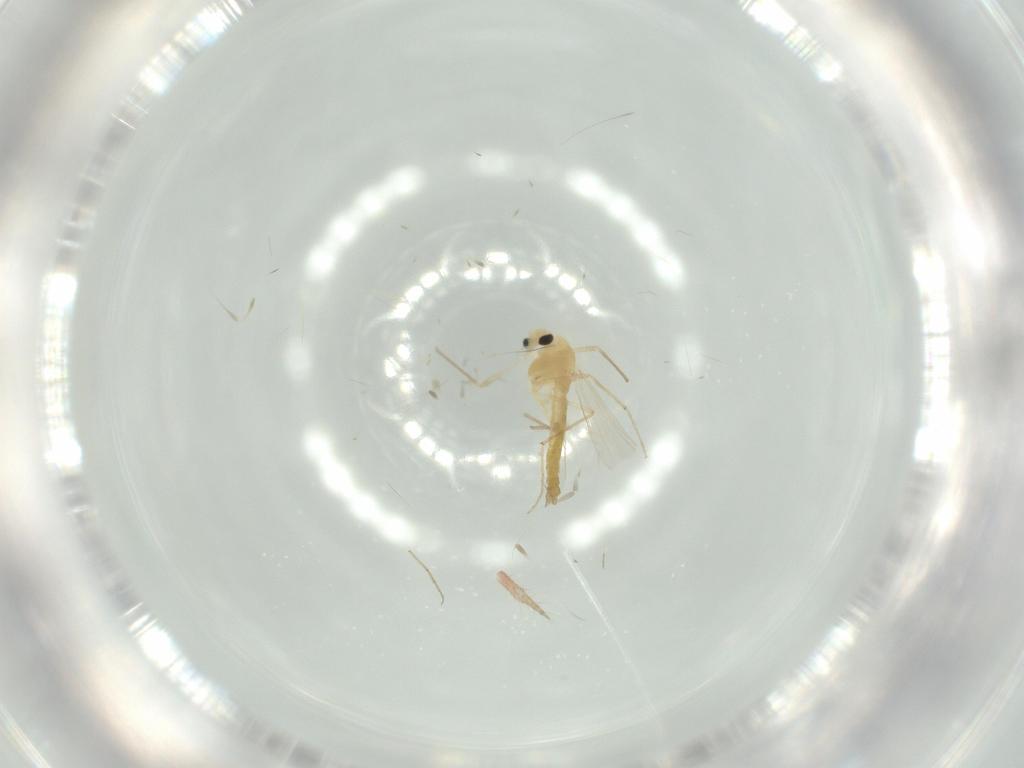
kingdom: Animalia
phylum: Arthropoda
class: Insecta
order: Diptera
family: Chironomidae
